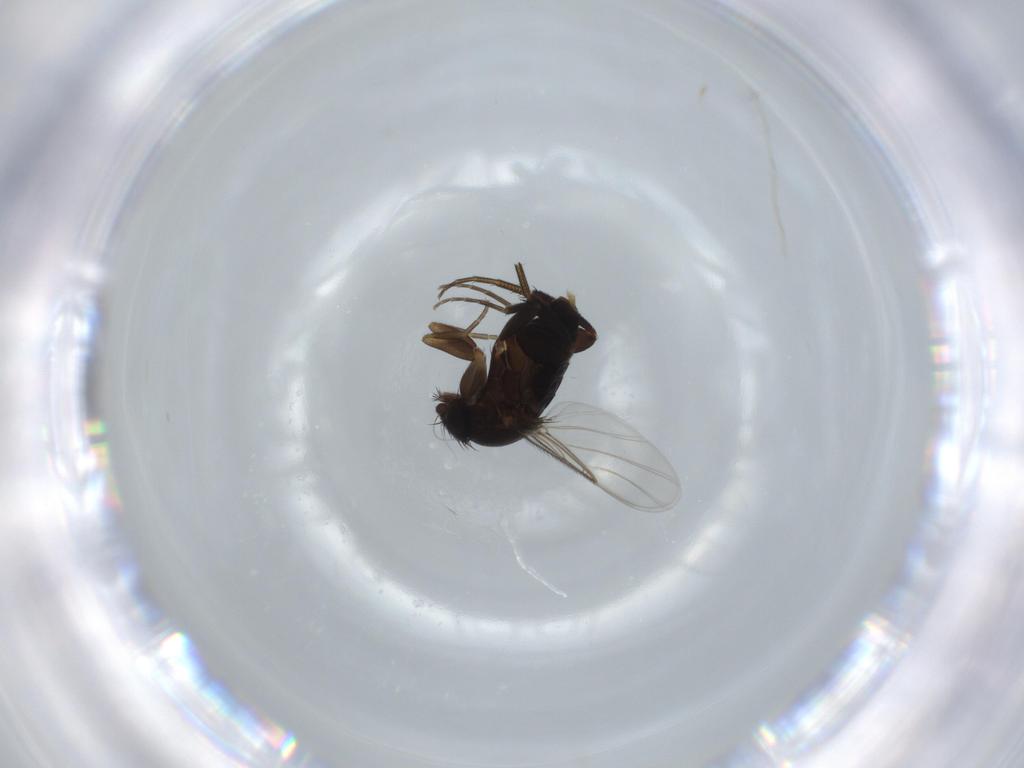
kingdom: Animalia
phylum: Arthropoda
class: Insecta
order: Diptera
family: Phoridae
